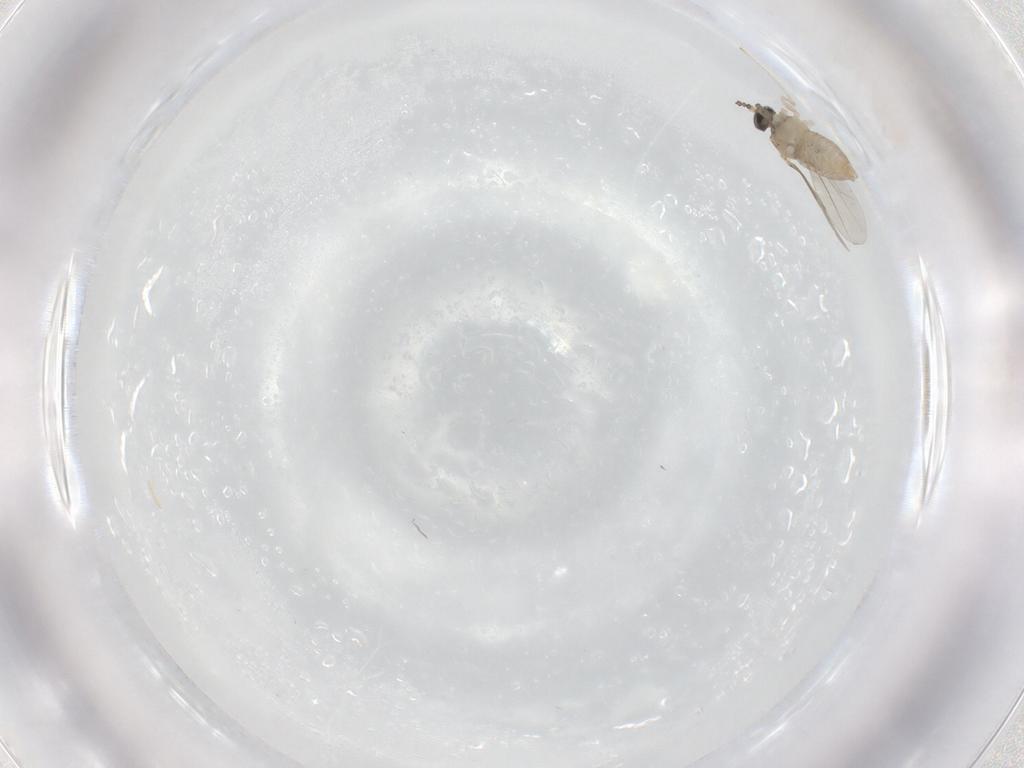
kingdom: Animalia
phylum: Arthropoda
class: Insecta
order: Diptera
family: Cecidomyiidae
